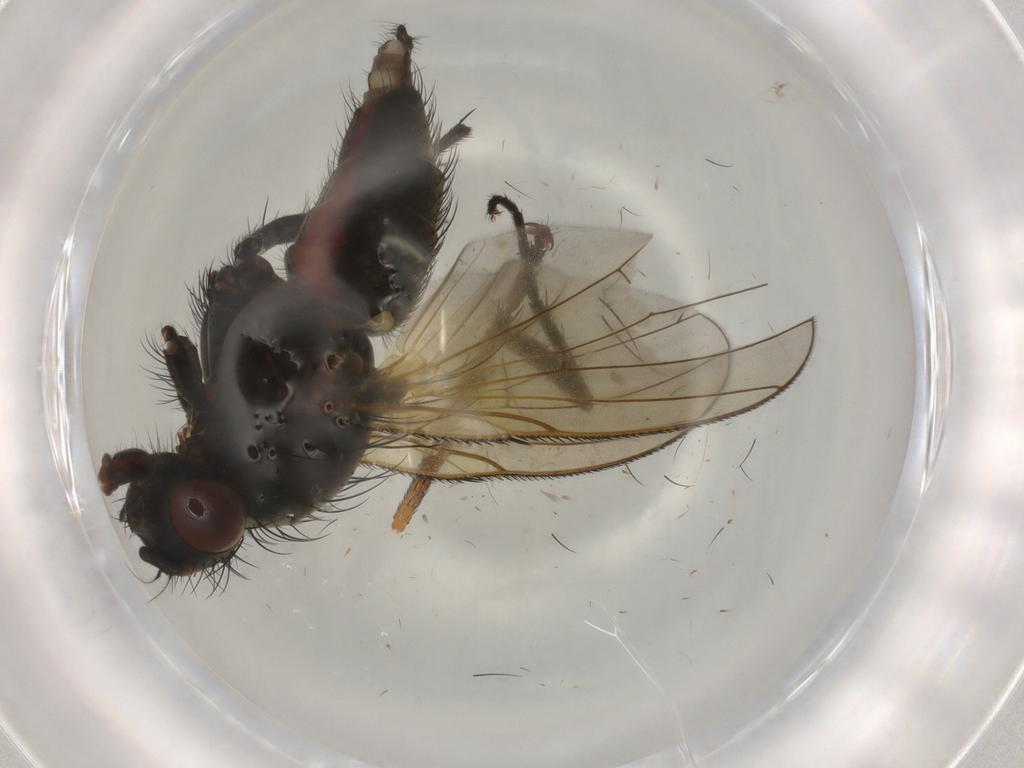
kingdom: Animalia
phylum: Arthropoda
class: Insecta
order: Diptera
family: Anthomyiidae
